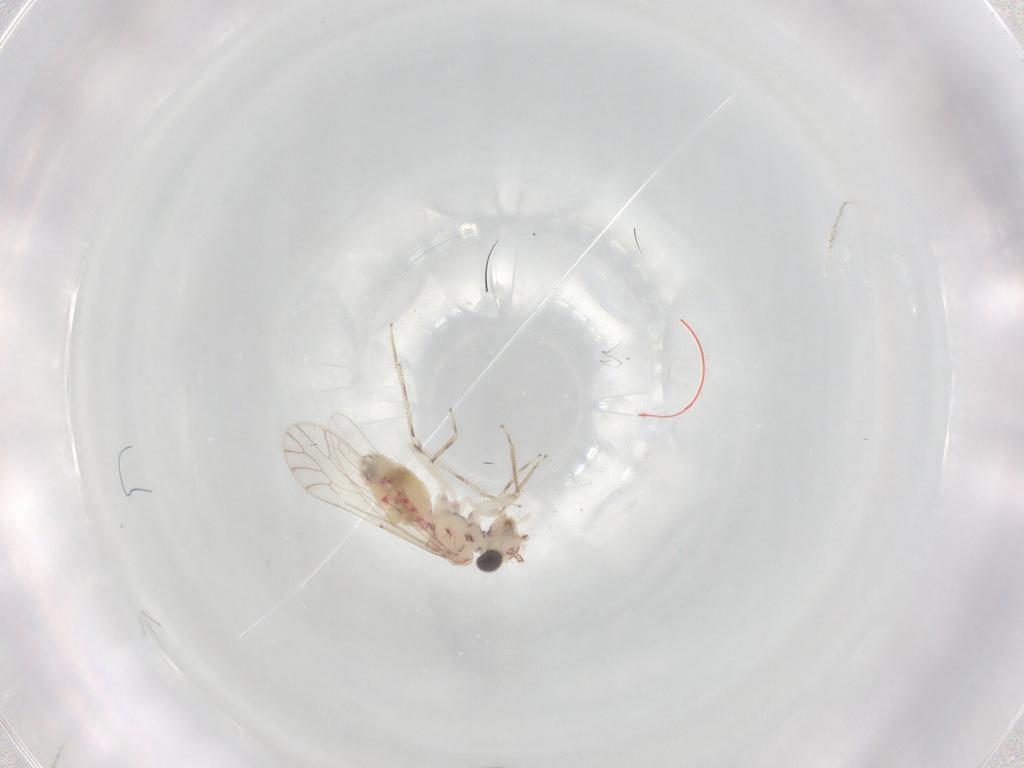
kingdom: Animalia
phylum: Arthropoda
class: Insecta
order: Psocodea
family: Caeciliusidae
